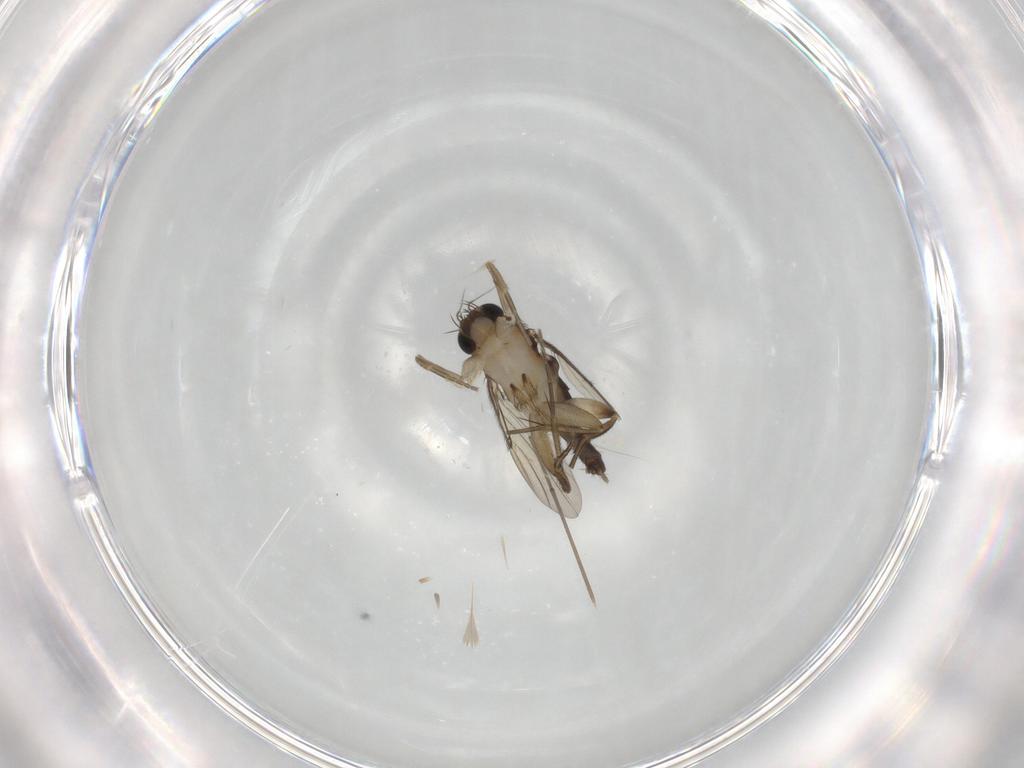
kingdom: Animalia
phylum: Arthropoda
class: Insecta
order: Diptera
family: Phoridae
